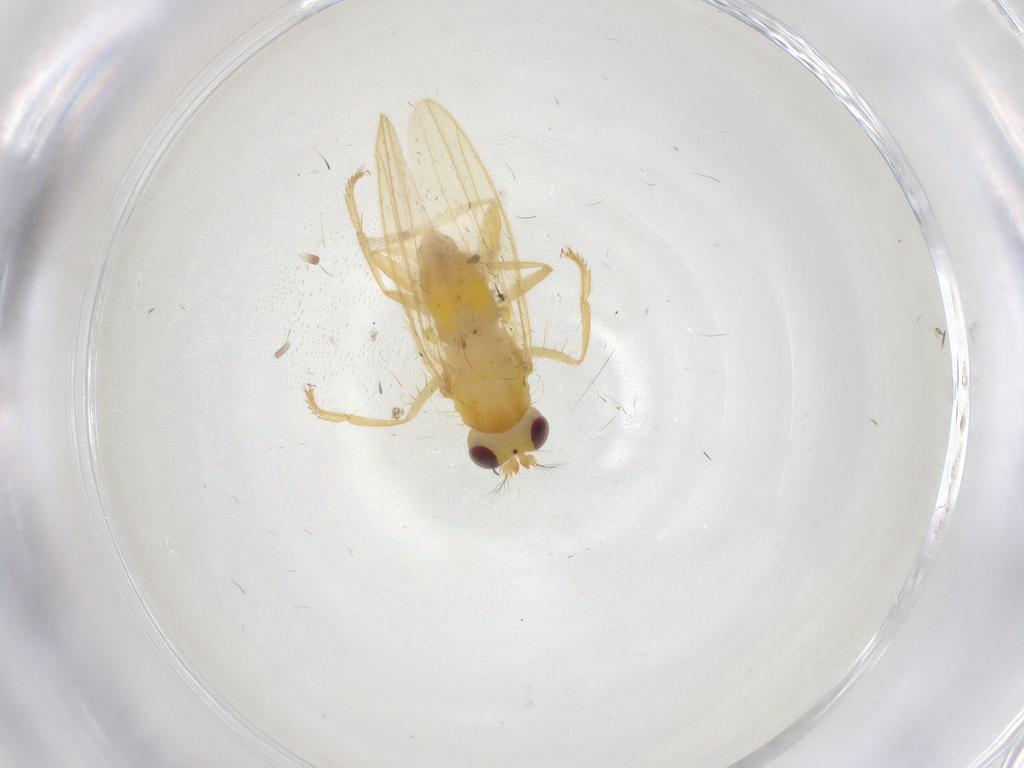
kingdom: Animalia
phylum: Arthropoda
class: Insecta
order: Diptera
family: Periscelididae
